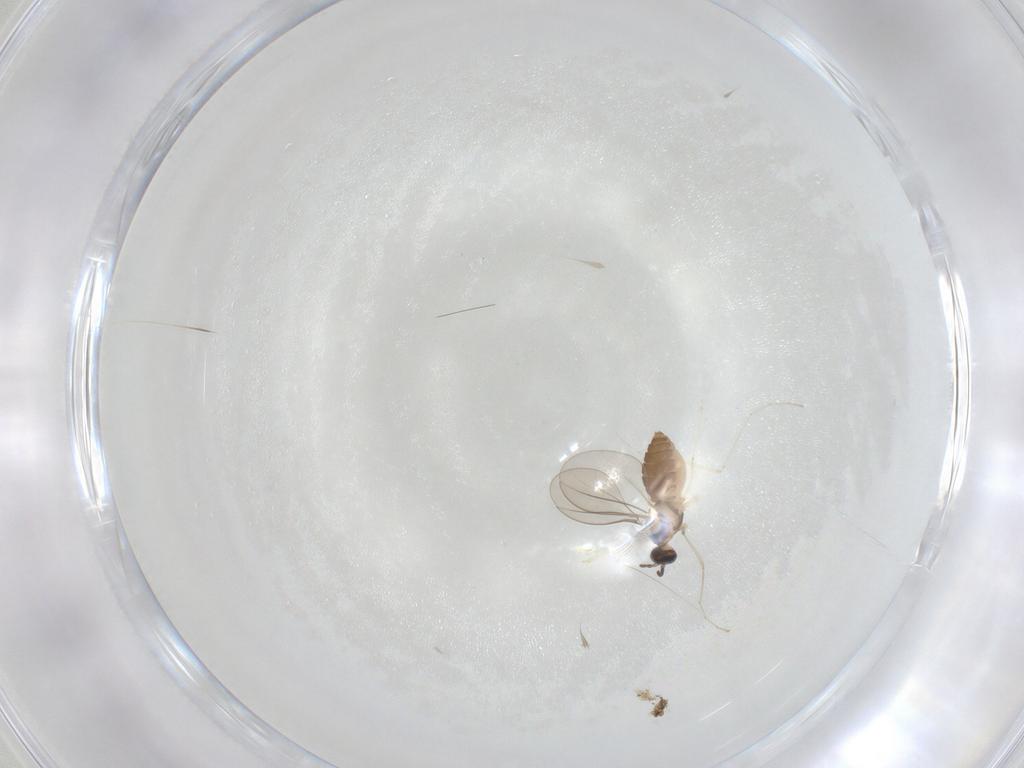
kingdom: Animalia
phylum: Arthropoda
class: Insecta
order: Diptera
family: Sciaridae
